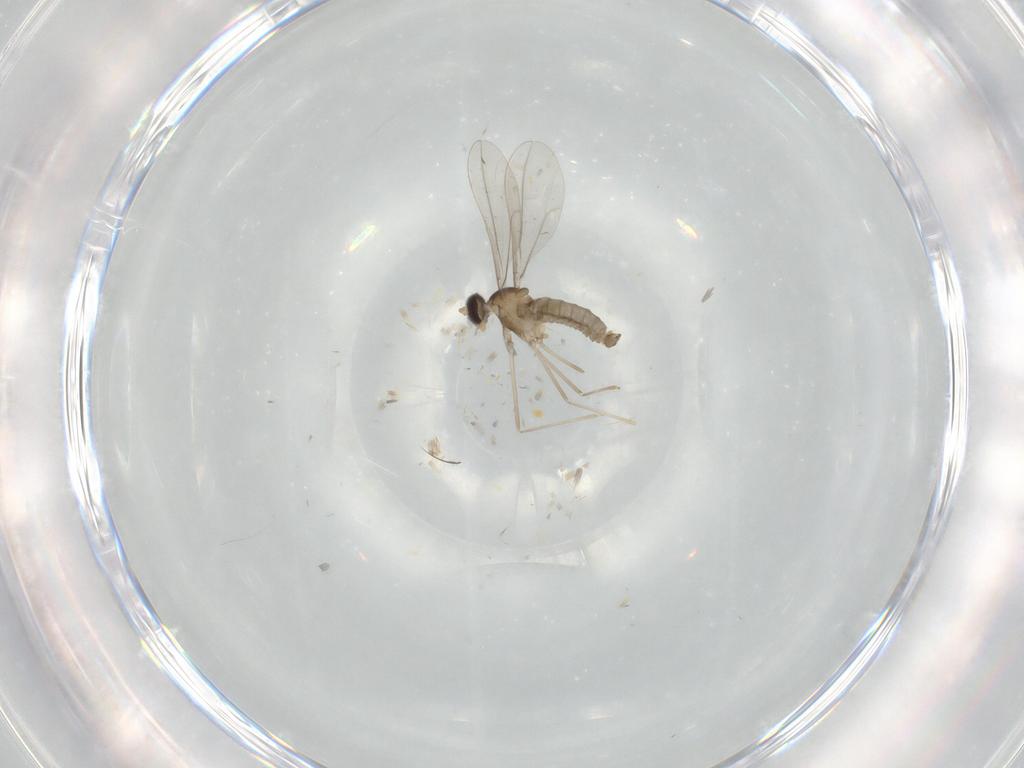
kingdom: Animalia
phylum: Arthropoda
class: Insecta
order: Diptera
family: Cecidomyiidae
